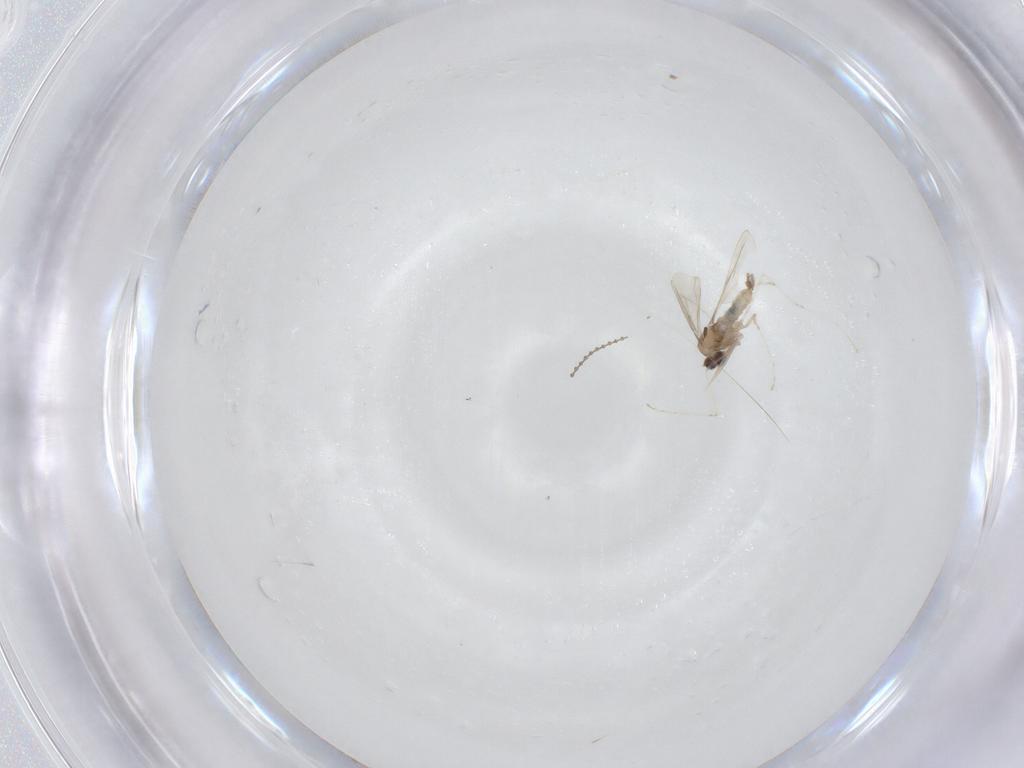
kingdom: Animalia
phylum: Arthropoda
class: Insecta
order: Diptera
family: Cecidomyiidae
